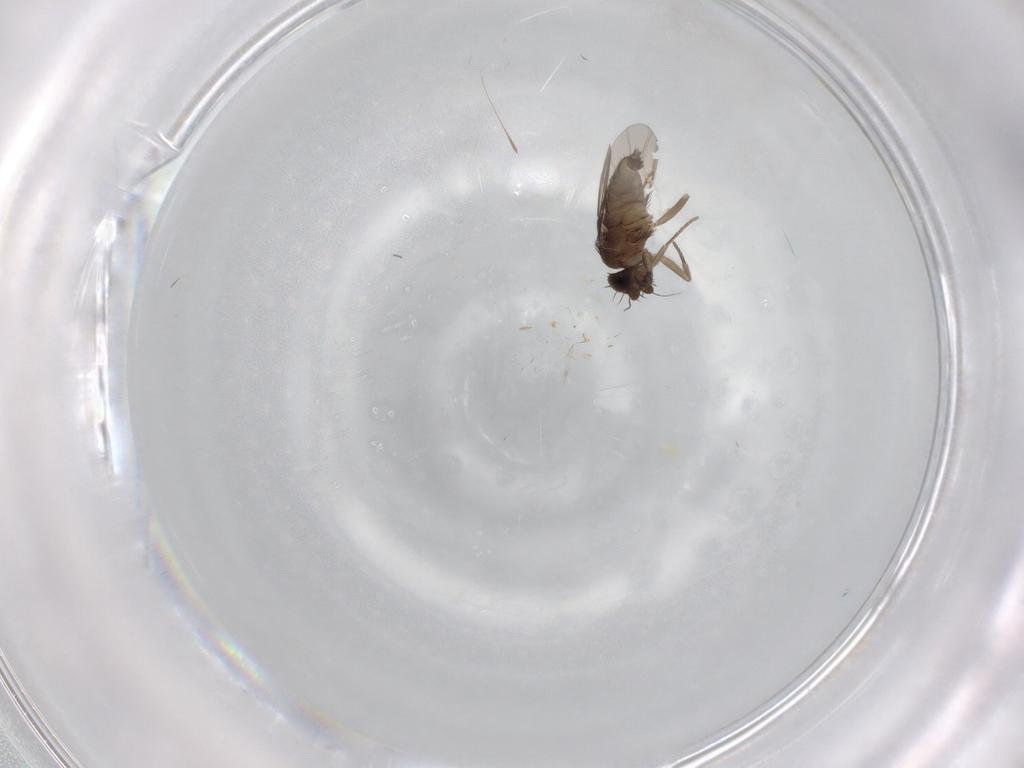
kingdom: Animalia
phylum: Arthropoda
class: Insecta
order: Diptera
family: Cecidomyiidae
